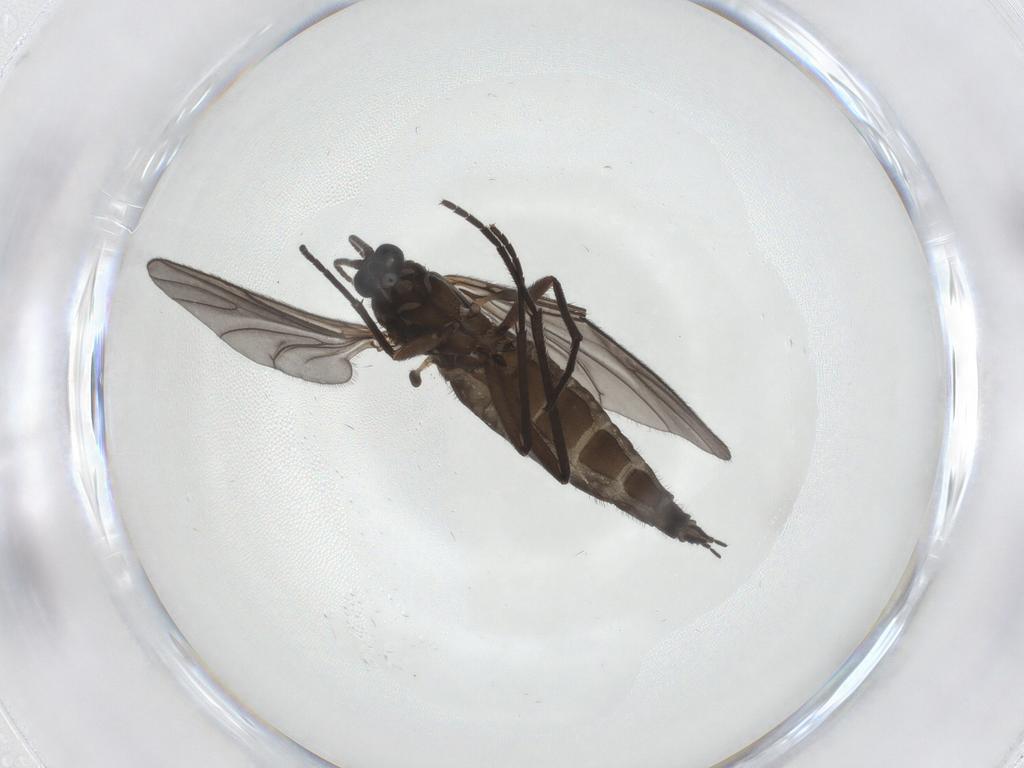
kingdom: Animalia
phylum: Arthropoda
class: Insecta
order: Diptera
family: Sciaridae
